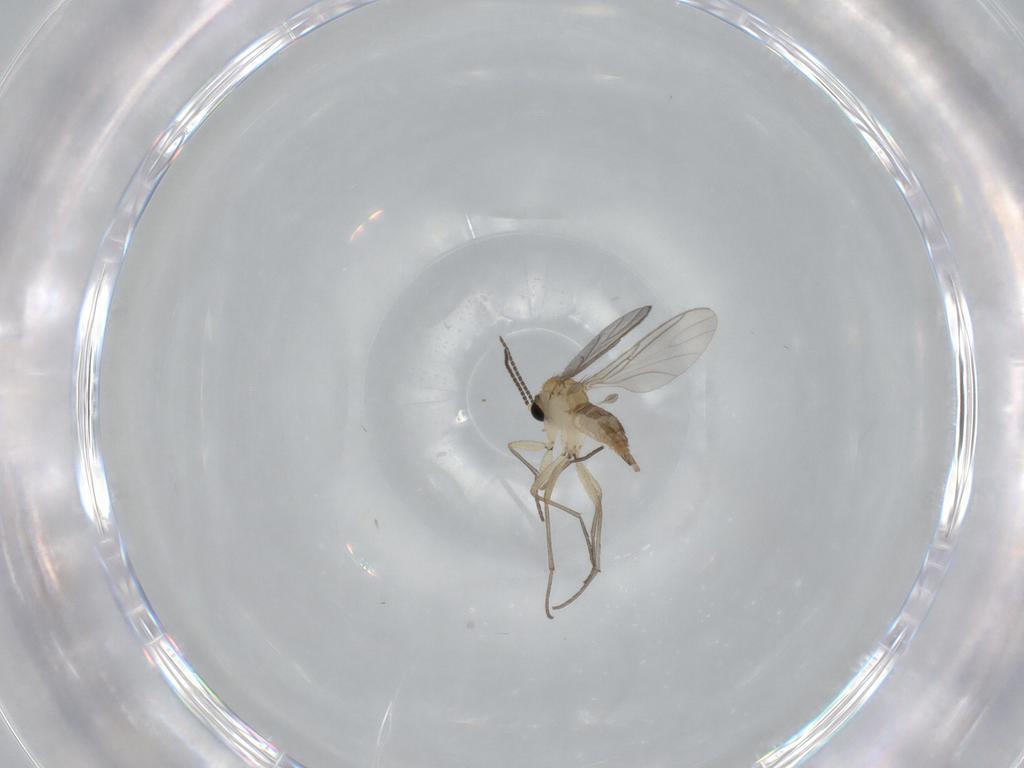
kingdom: Animalia
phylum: Arthropoda
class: Insecta
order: Diptera
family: Sciaridae
